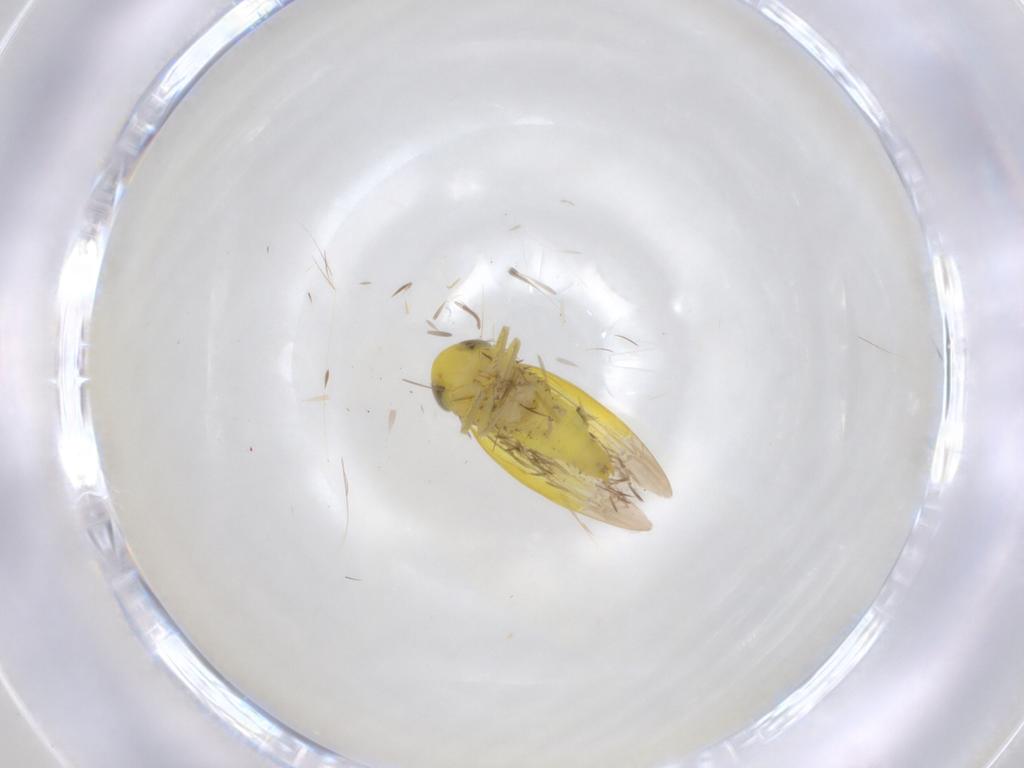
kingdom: Animalia
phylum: Arthropoda
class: Insecta
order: Hemiptera
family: Cicadellidae
